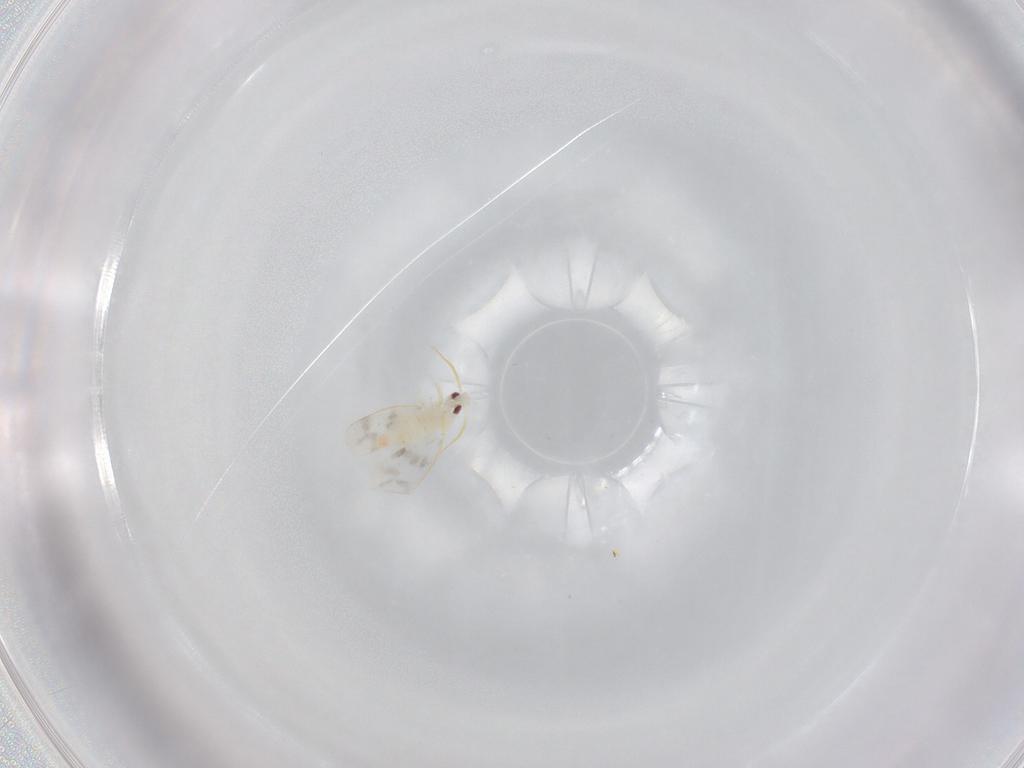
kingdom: Animalia
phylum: Arthropoda
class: Insecta
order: Hemiptera
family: Aleyrodidae
